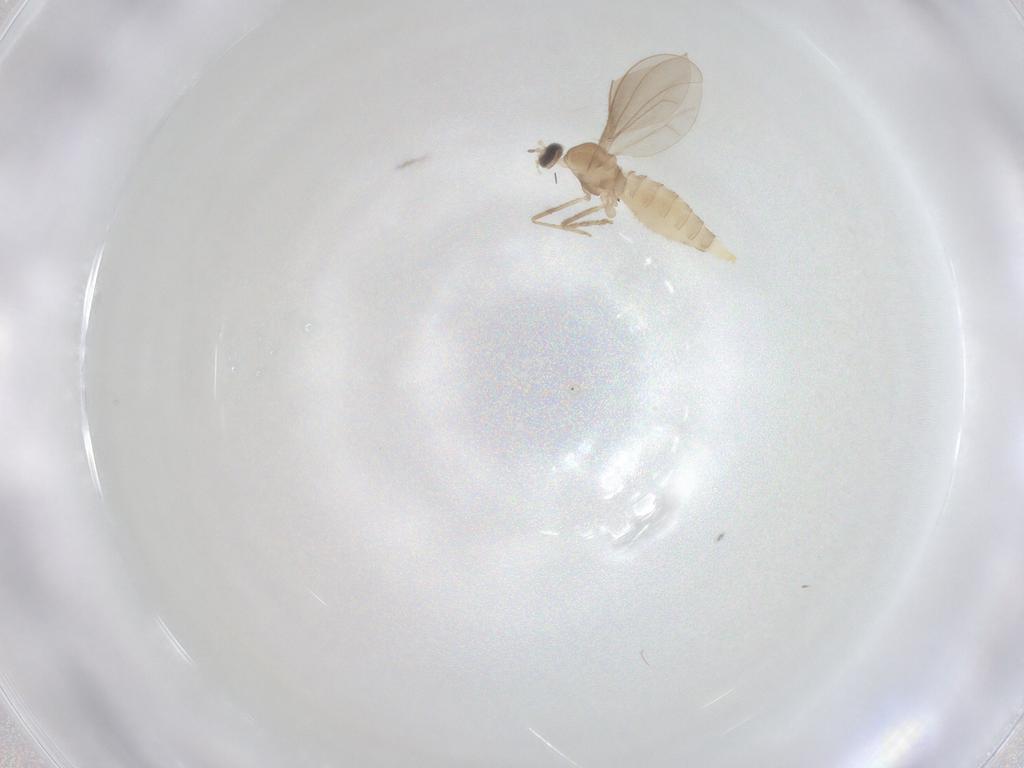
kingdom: Animalia
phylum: Arthropoda
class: Insecta
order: Diptera
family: Cecidomyiidae
